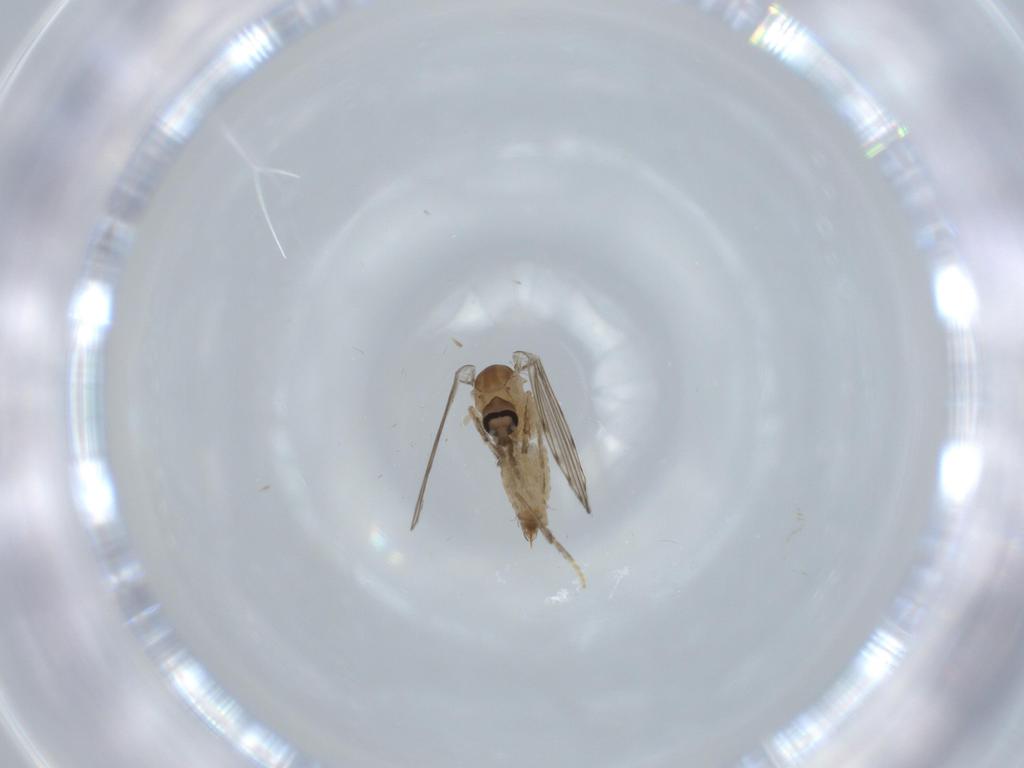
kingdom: Animalia
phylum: Arthropoda
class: Insecta
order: Diptera
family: Psychodidae
